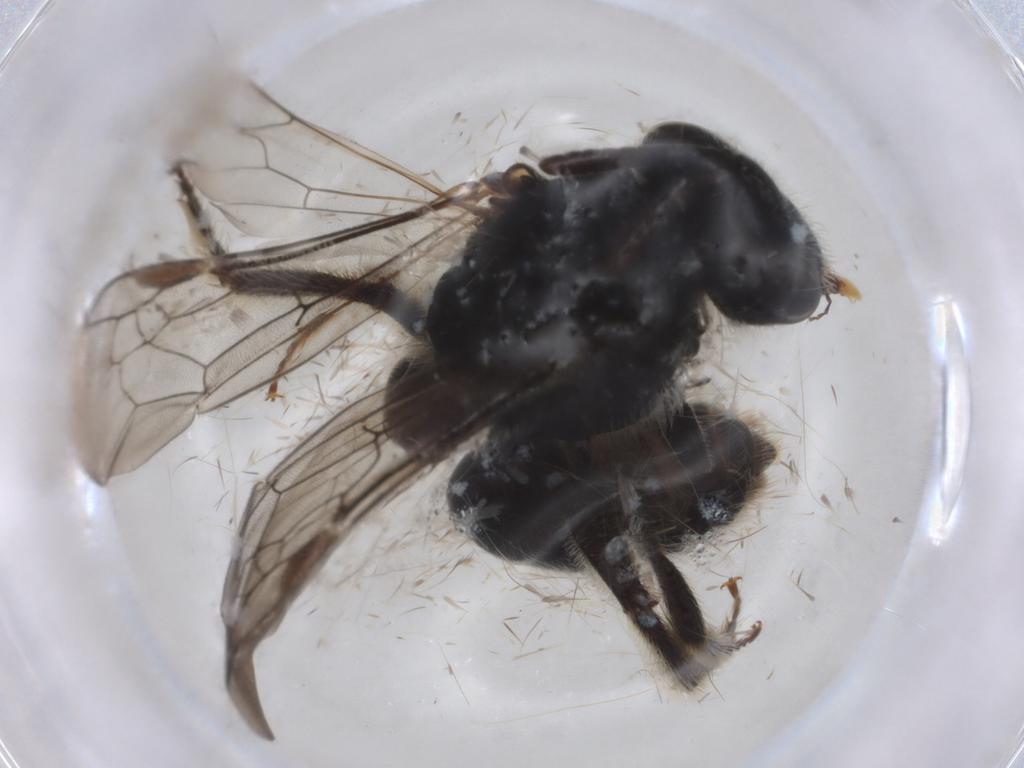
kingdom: Animalia
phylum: Arthropoda
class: Insecta
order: Hymenoptera
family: Braconidae
